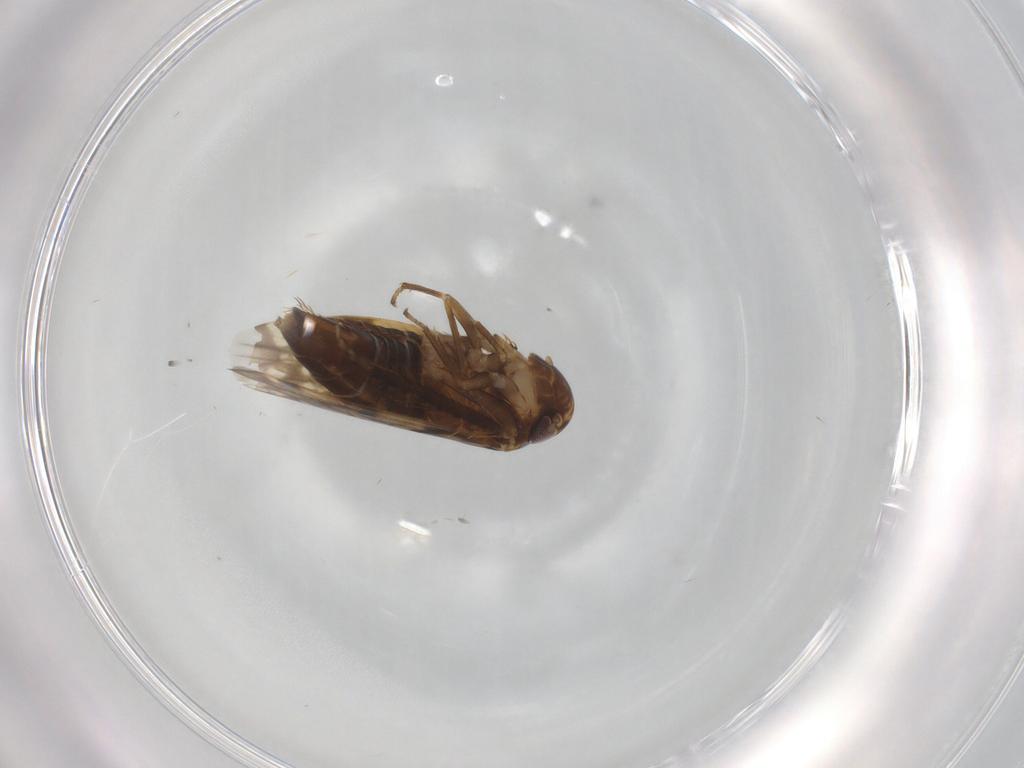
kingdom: Animalia
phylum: Arthropoda
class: Insecta
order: Hemiptera
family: Cicadellidae
